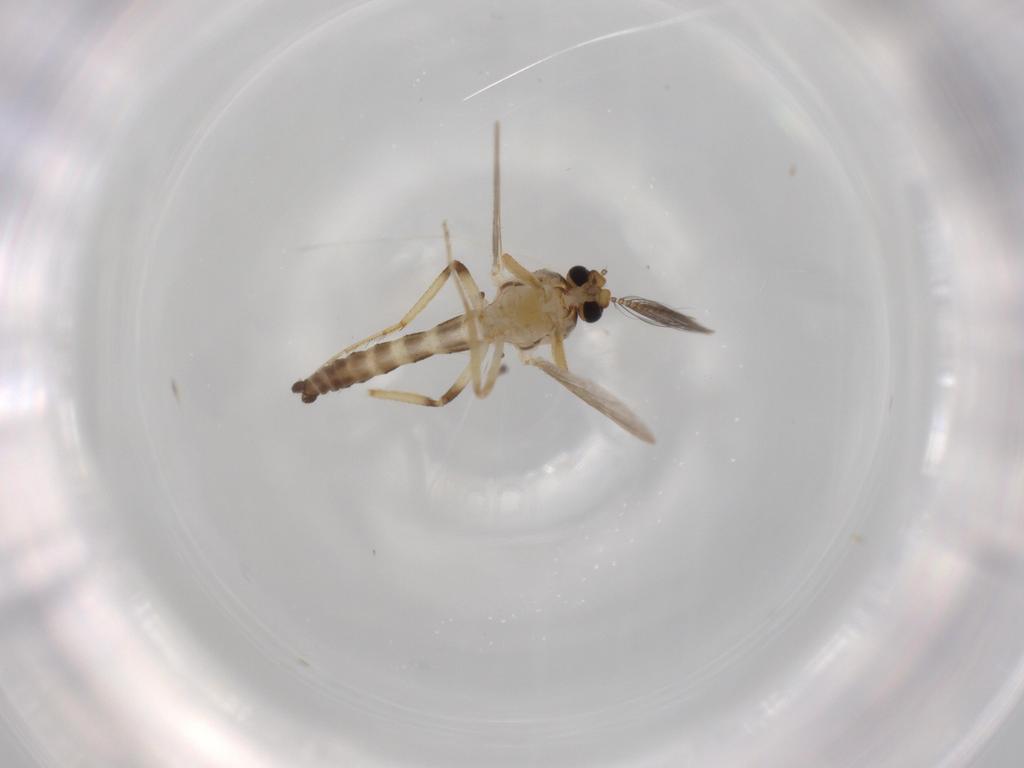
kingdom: Animalia
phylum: Arthropoda
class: Insecta
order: Diptera
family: Ceratopogonidae
